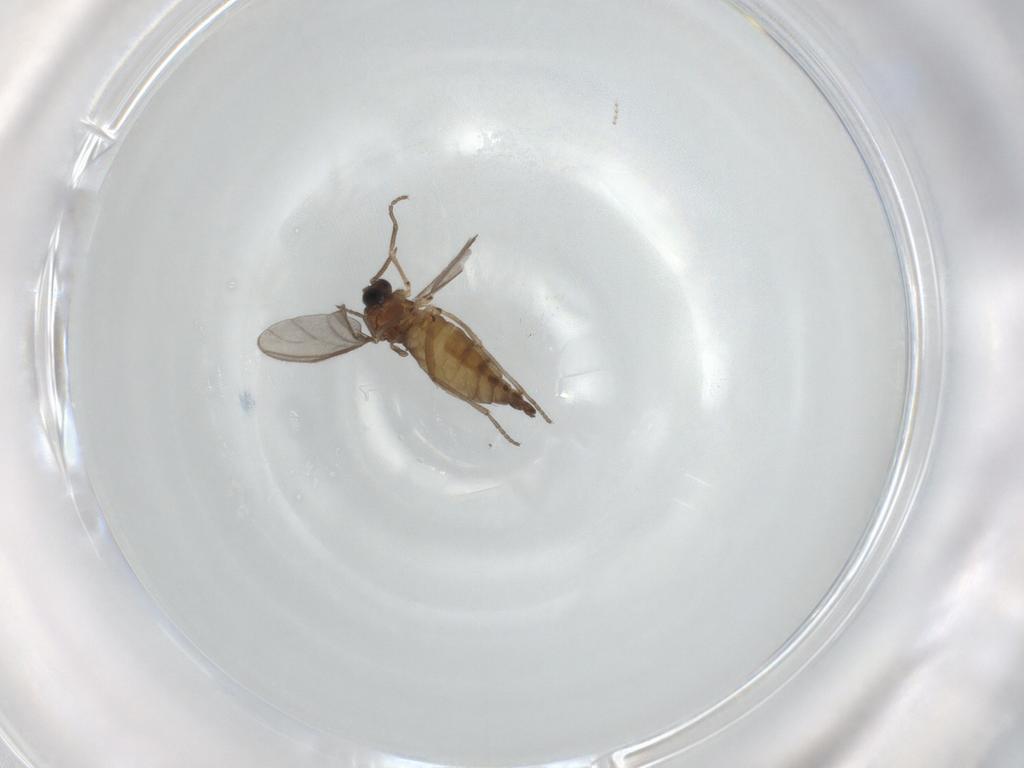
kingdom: Animalia
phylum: Arthropoda
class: Insecta
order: Diptera
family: Sciaridae
